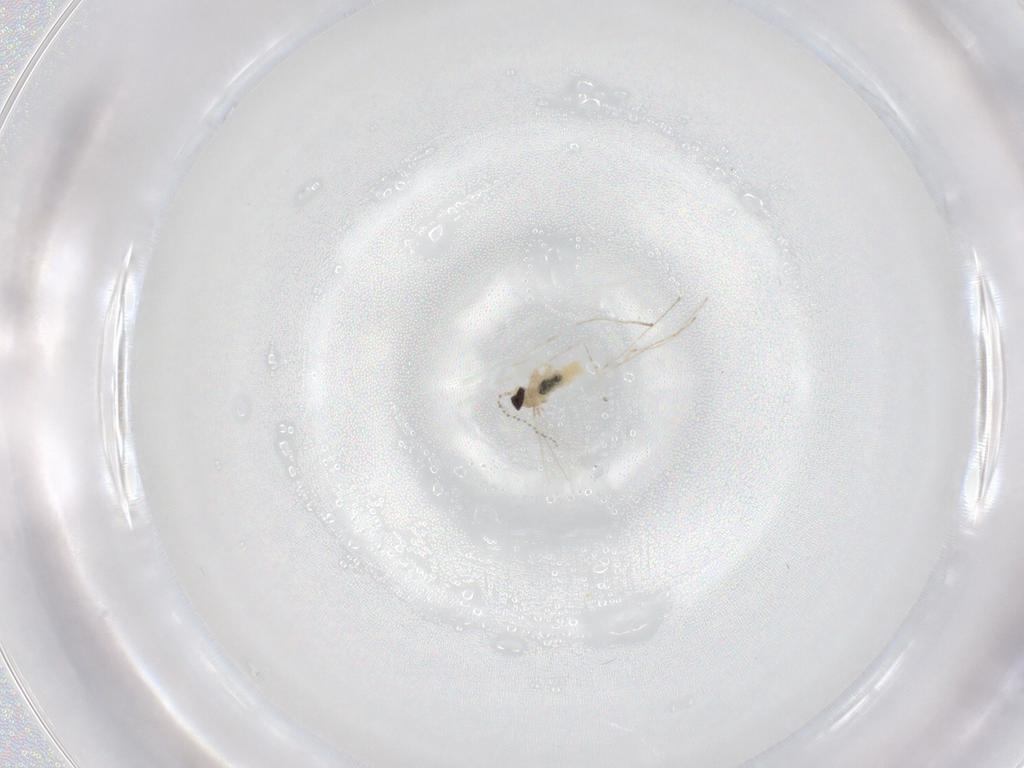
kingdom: Animalia
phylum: Arthropoda
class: Insecta
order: Diptera
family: Cecidomyiidae
